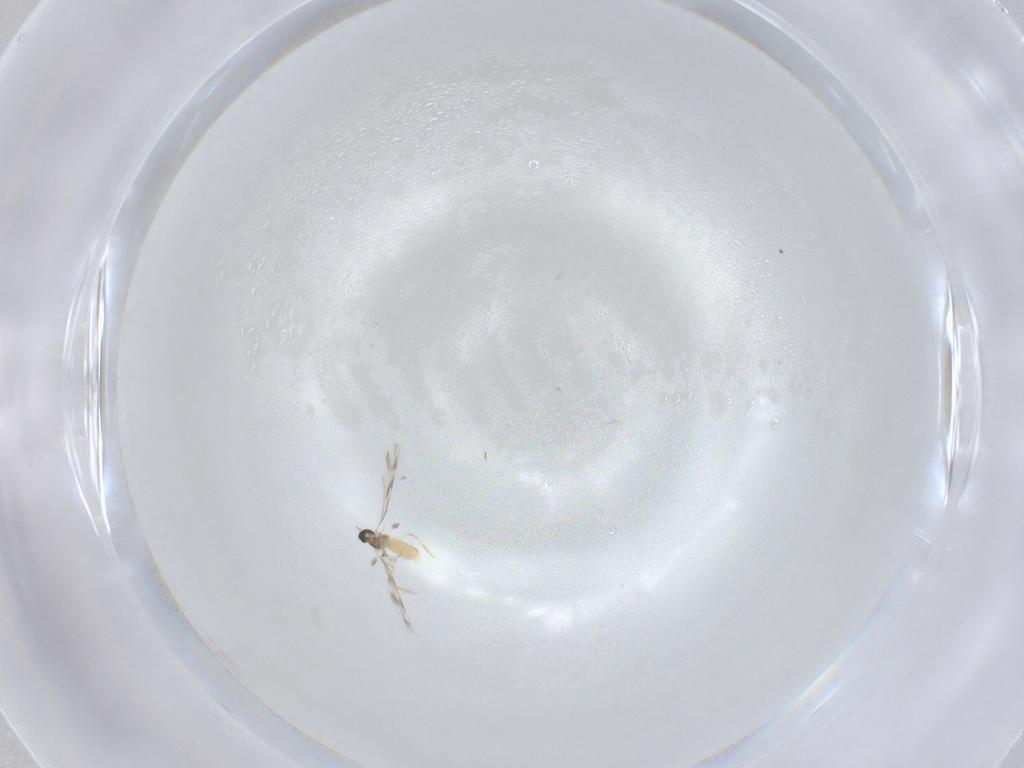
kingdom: Animalia
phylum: Arthropoda
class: Insecta
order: Diptera
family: Cecidomyiidae
